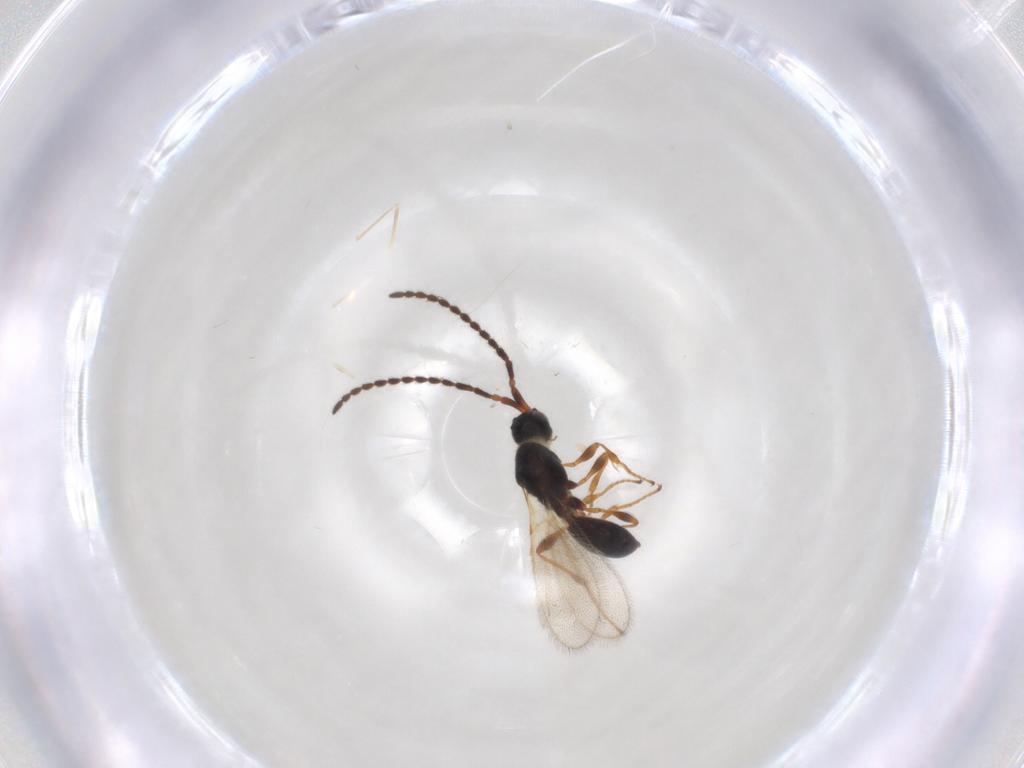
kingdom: Animalia
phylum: Arthropoda
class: Insecta
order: Hymenoptera
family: Diapriidae
